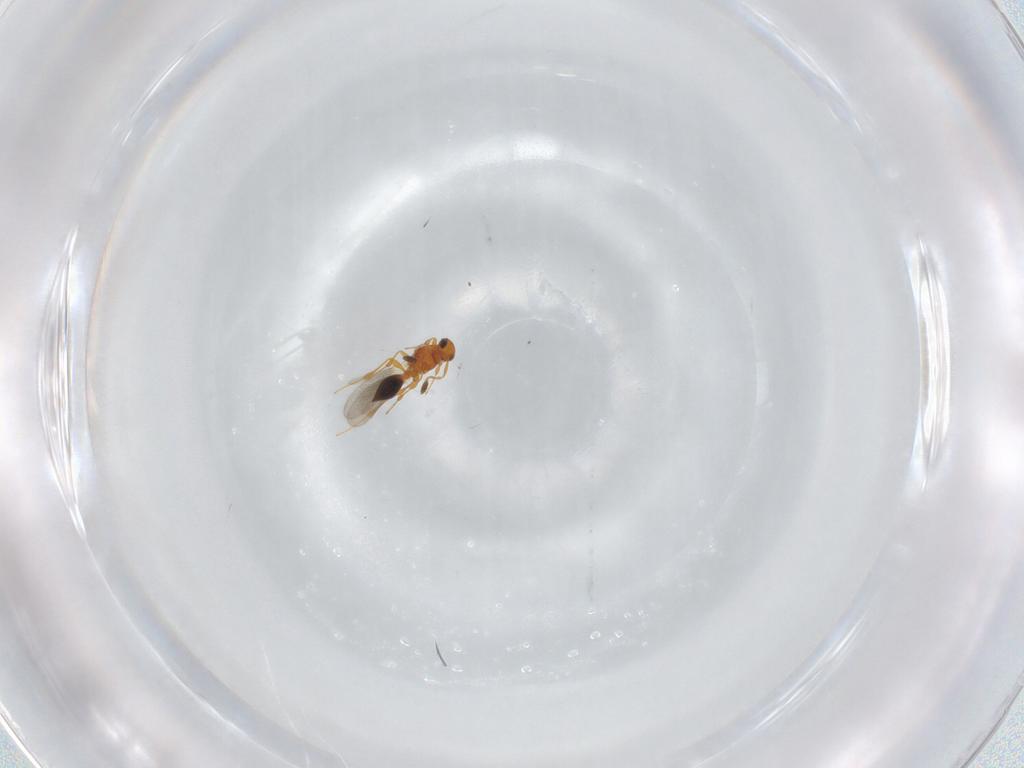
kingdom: Animalia
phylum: Arthropoda
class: Insecta
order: Hymenoptera
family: Platygastridae
